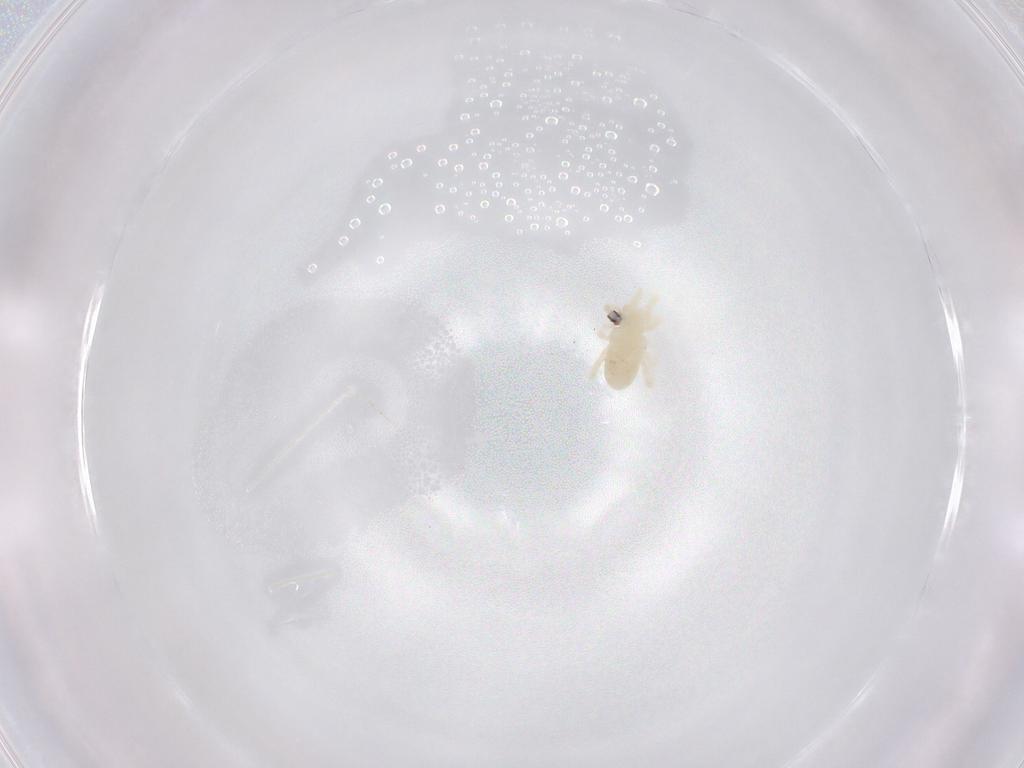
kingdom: Animalia
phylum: Arthropoda
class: Arachnida
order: Trombidiformes
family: Rhagidiidae
